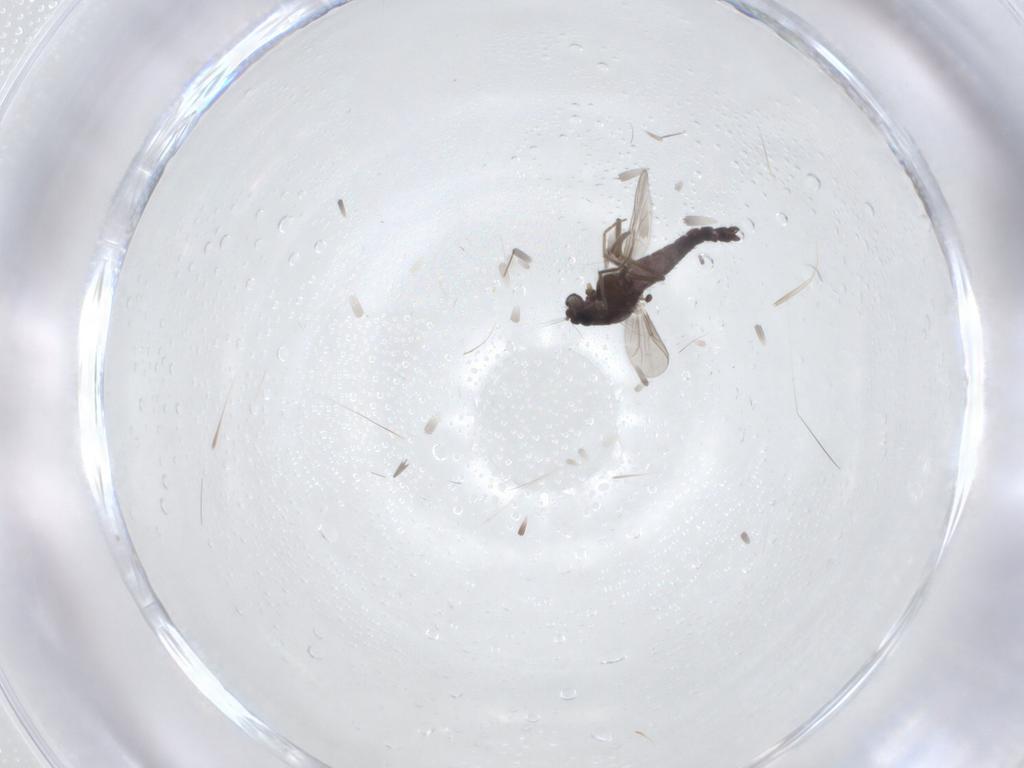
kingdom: Animalia
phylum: Arthropoda
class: Insecta
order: Diptera
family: Chironomidae
